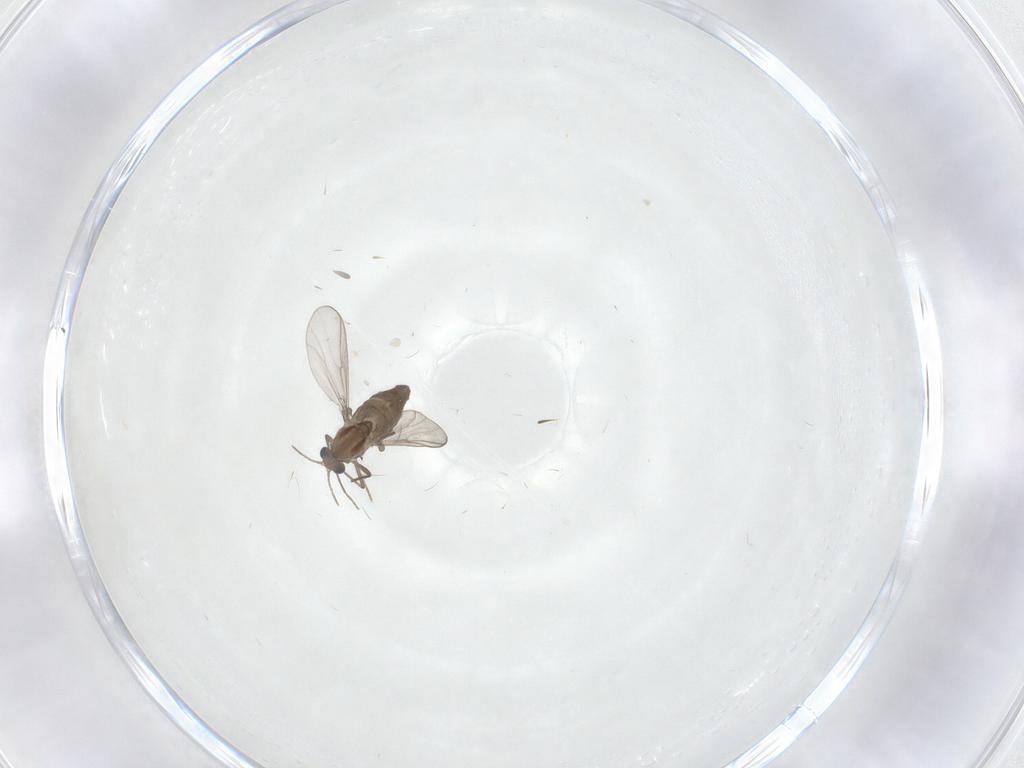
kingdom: Animalia
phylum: Arthropoda
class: Insecta
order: Diptera
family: Chironomidae
